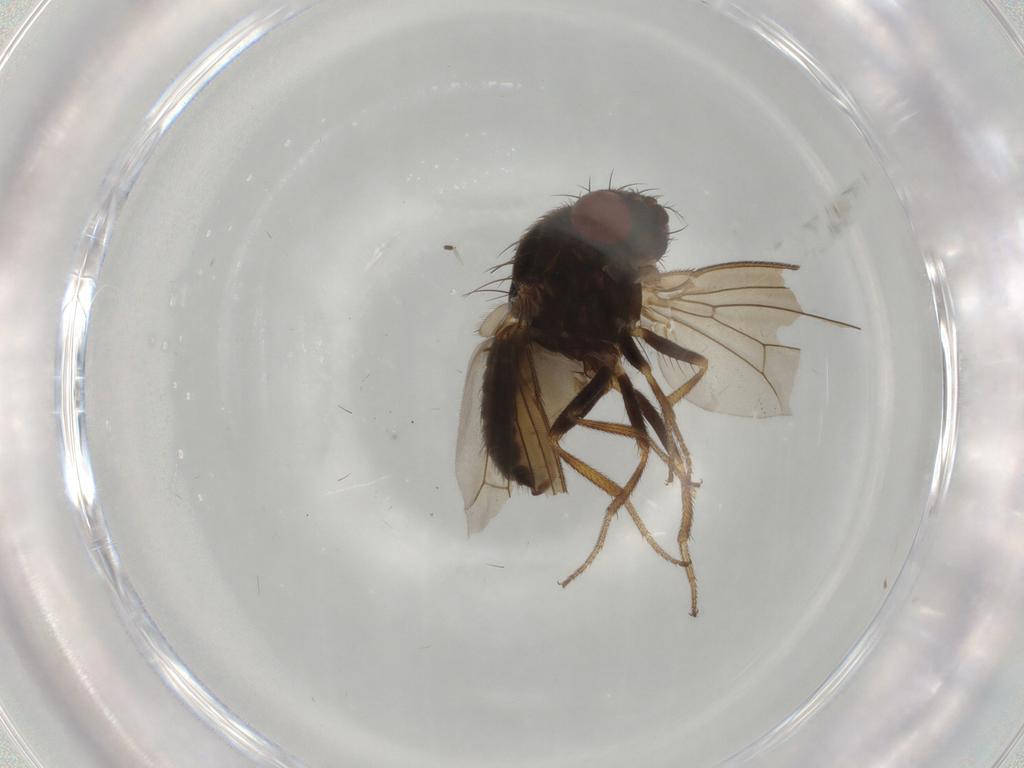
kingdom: Animalia
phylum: Arthropoda
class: Insecta
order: Diptera
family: Drosophilidae
